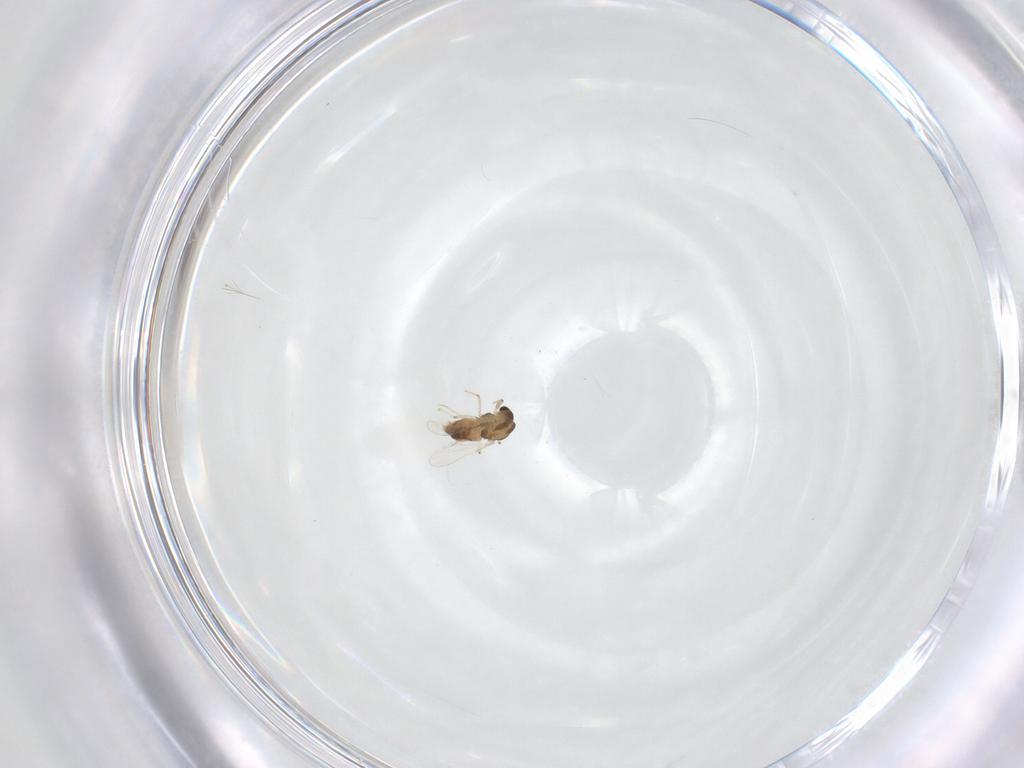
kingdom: Animalia
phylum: Arthropoda
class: Insecta
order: Diptera
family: Chironomidae
